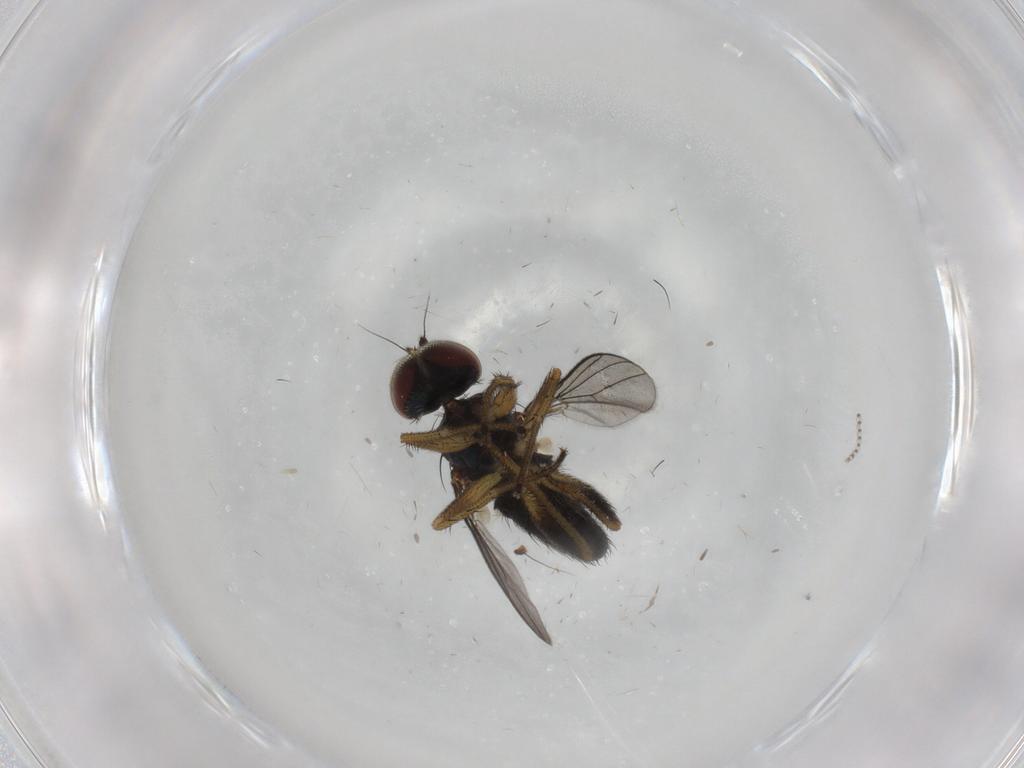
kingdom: Animalia
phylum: Arthropoda
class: Insecta
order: Diptera
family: Dolichopodidae
